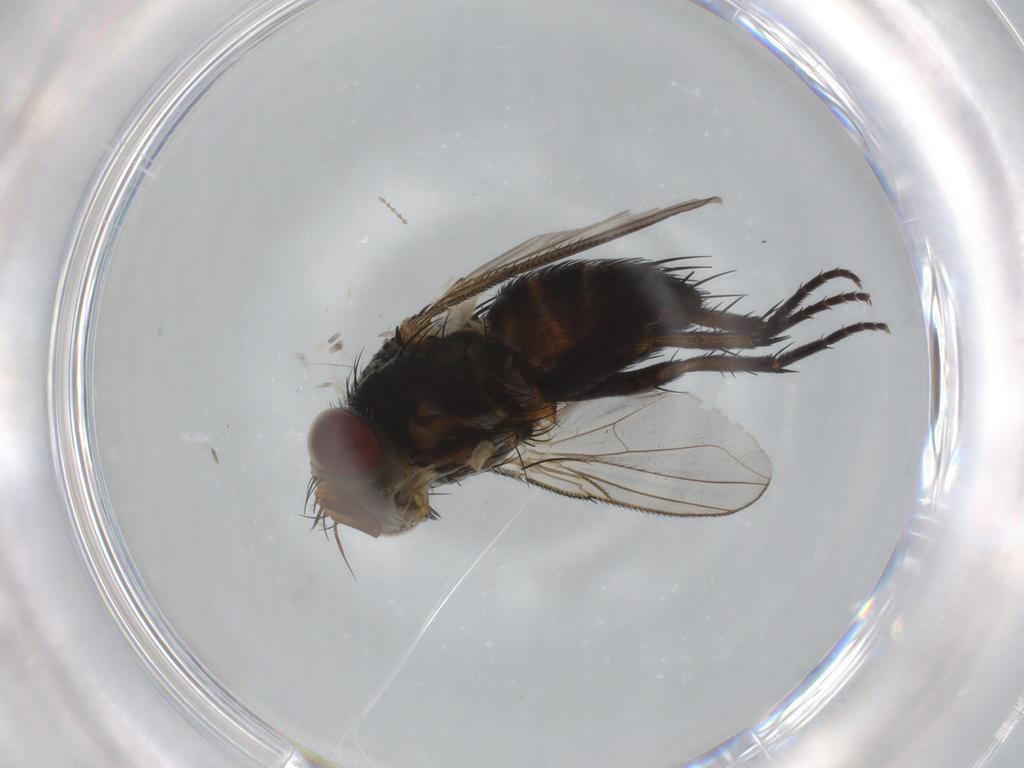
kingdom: Animalia
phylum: Arthropoda
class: Insecta
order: Diptera
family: Tachinidae
